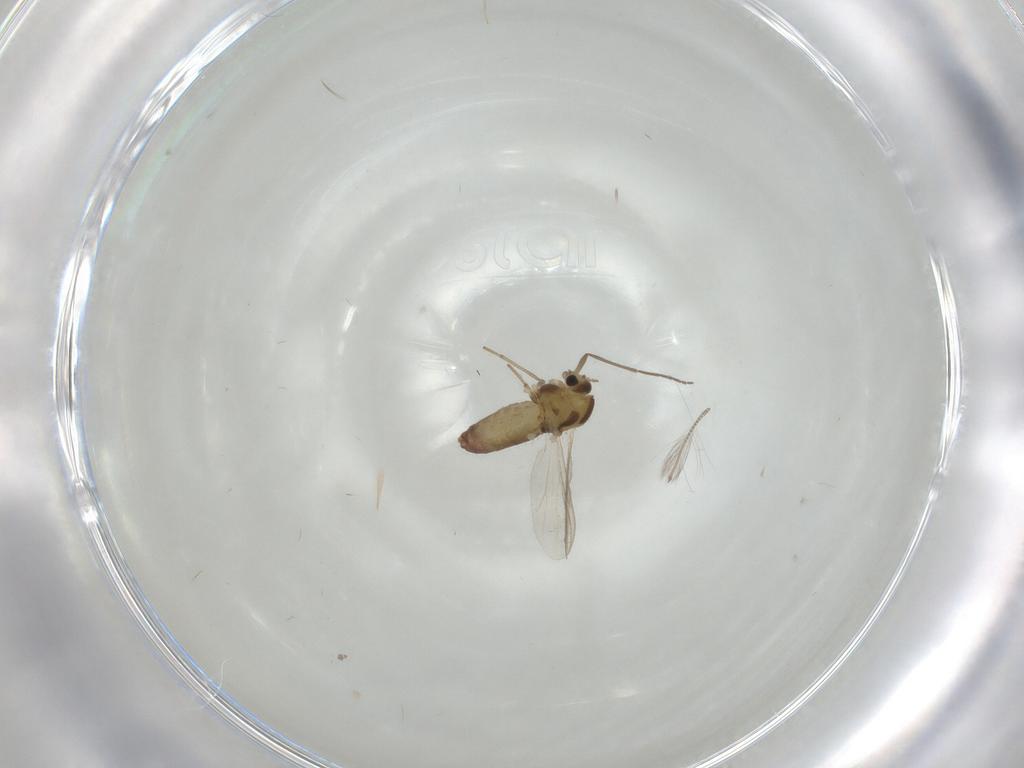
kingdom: Animalia
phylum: Arthropoda
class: Insecta
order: Diptera
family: Chironomidae
